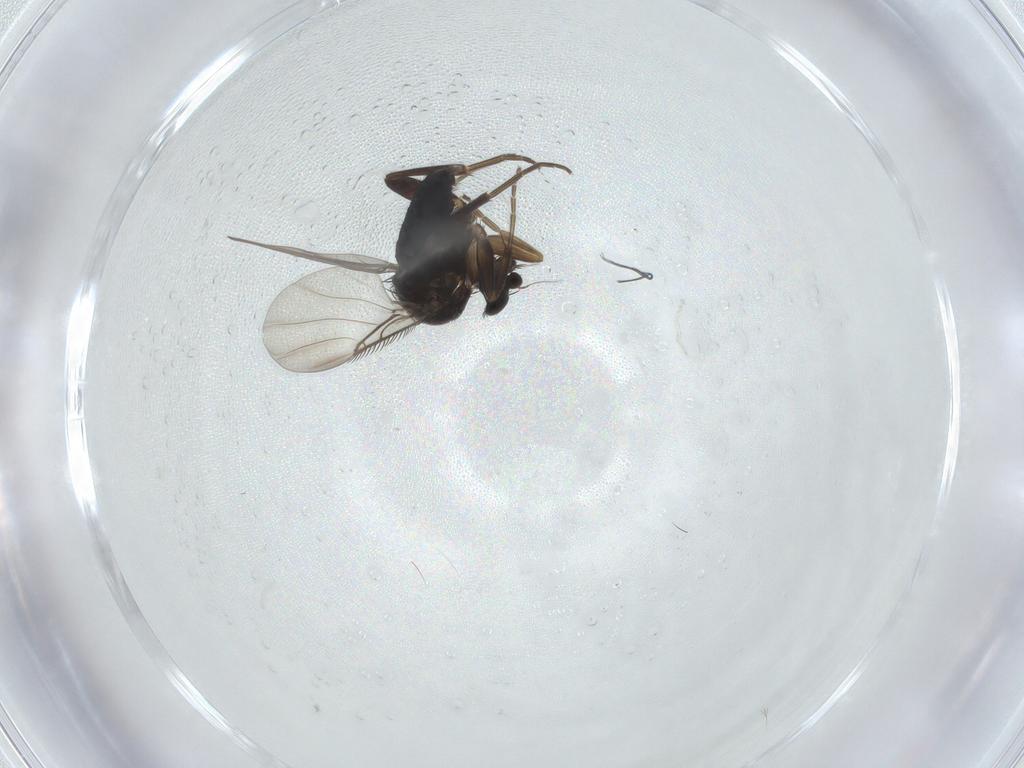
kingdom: Animalia
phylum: Arthropoda
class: Insecta
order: Diptera
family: Phoridae
